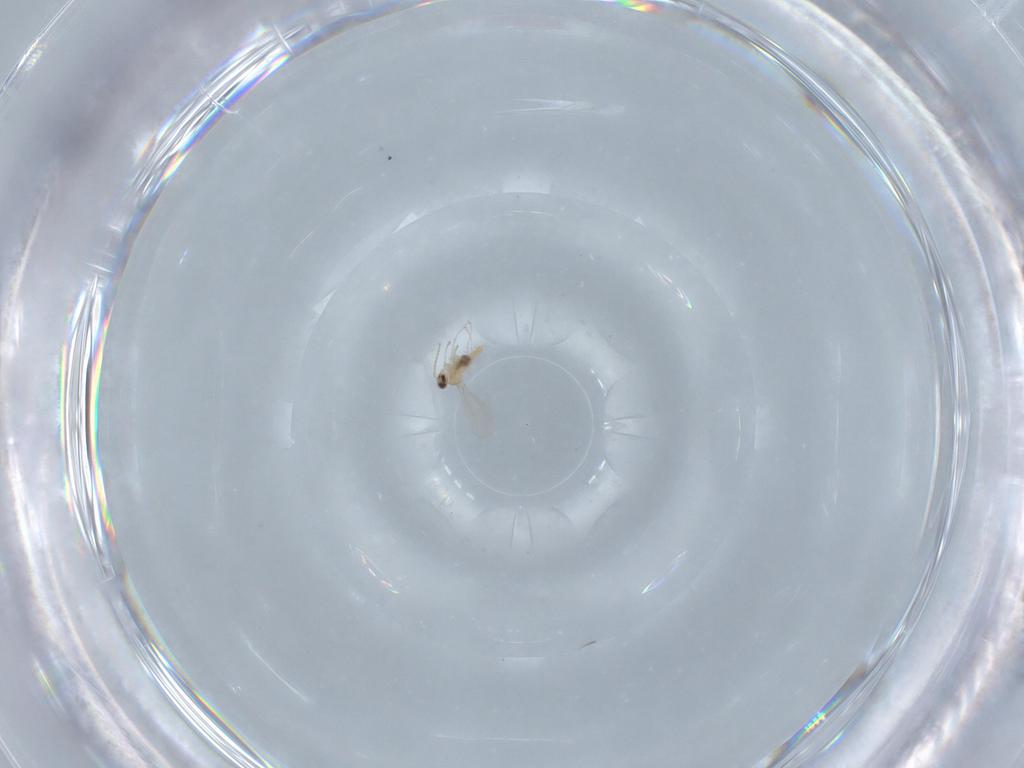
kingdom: Animalia
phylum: Arthropoda
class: Insecta
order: Diptera
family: Cecidomyiidae
